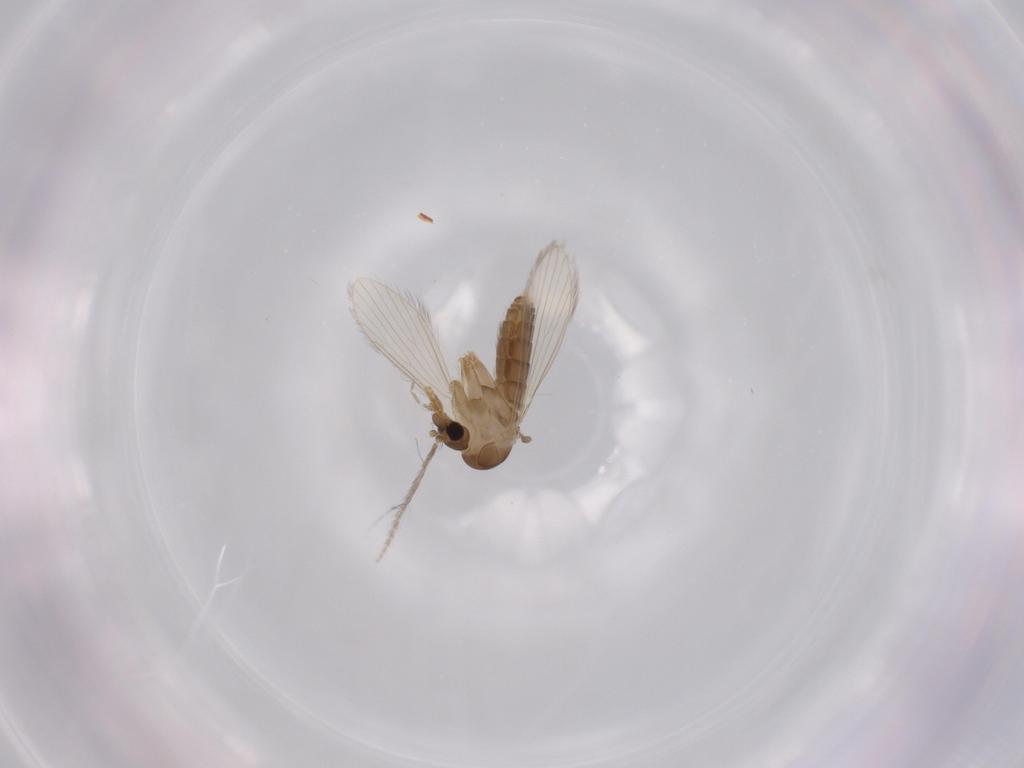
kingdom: Animalia
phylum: Arthropoda
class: Insecta
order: Diptera
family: Psychodidae
